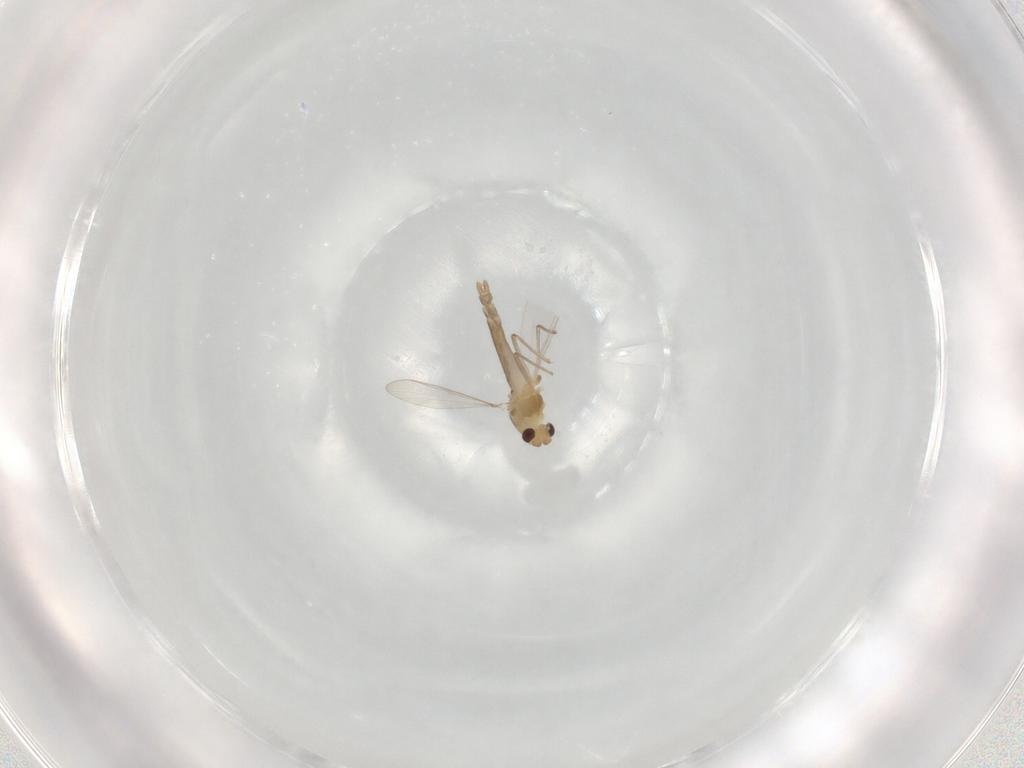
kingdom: Animalia
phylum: Arthropoda
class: Insecta
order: Diptera
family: Chironomidae
